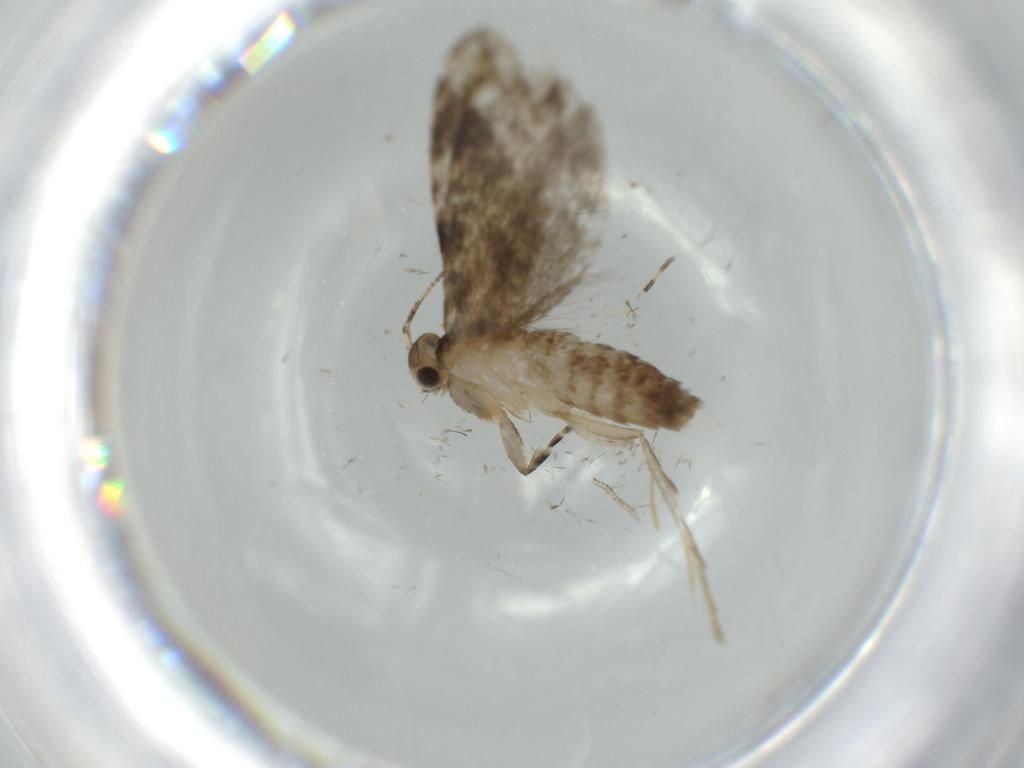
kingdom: Animalia
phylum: Arthropoda
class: Insecta
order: Lepidoptera
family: Tineidae
